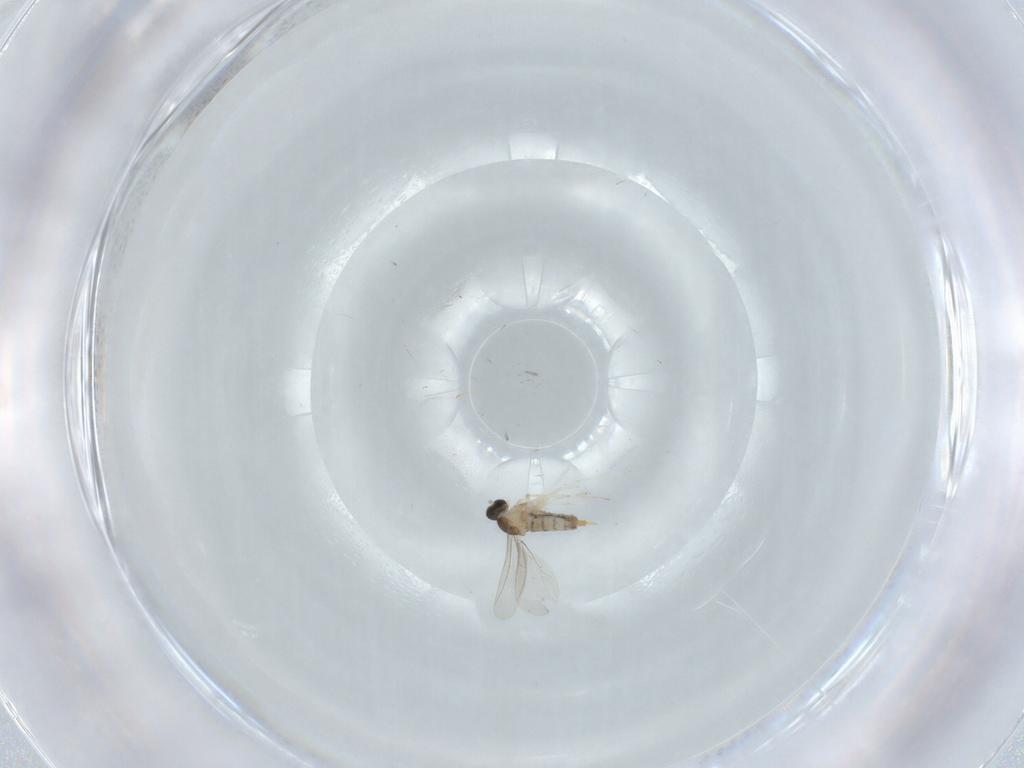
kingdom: Animalia
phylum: Arthropoda
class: Insecta
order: Diptera
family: Cecidomyiidae
